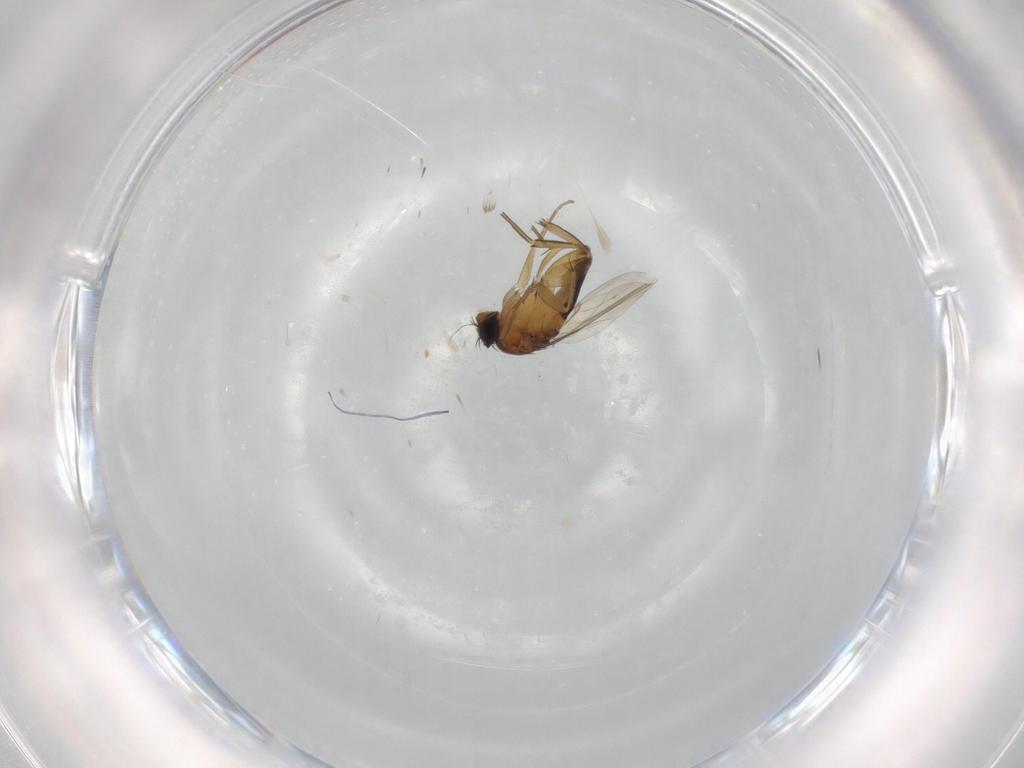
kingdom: Animalia
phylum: Arthropoda
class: Insecta
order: Diptera
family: Phoridae
